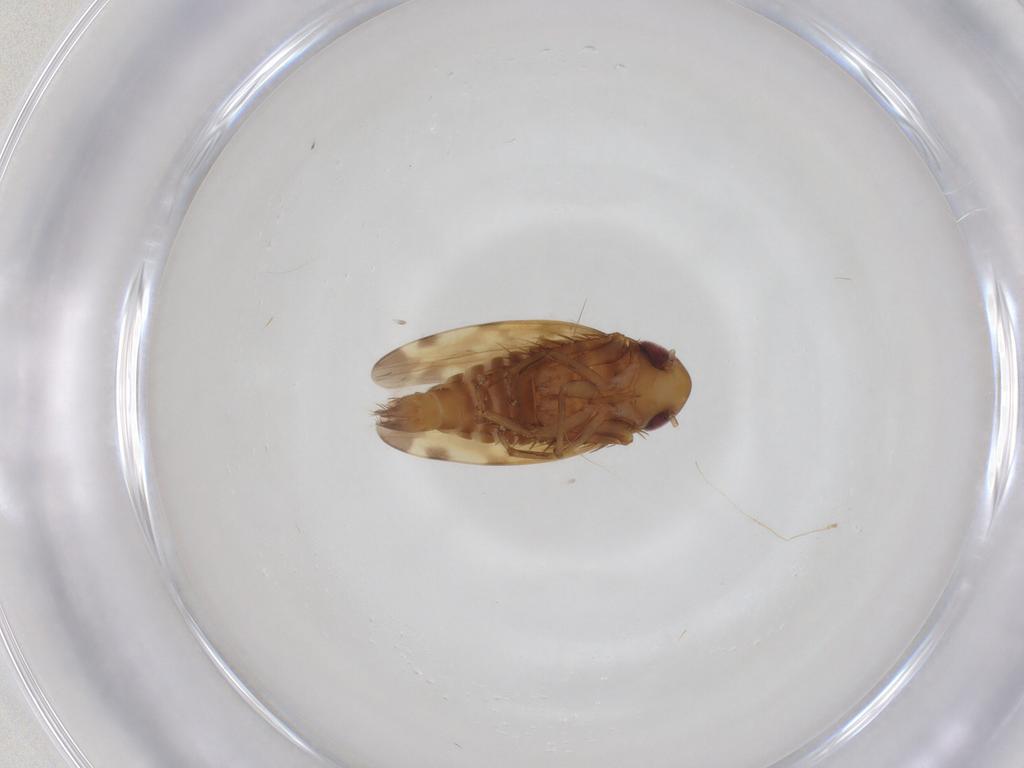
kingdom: Animalia
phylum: Arthropoda
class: Insecta
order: Hemiptera
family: Cicadellidae
